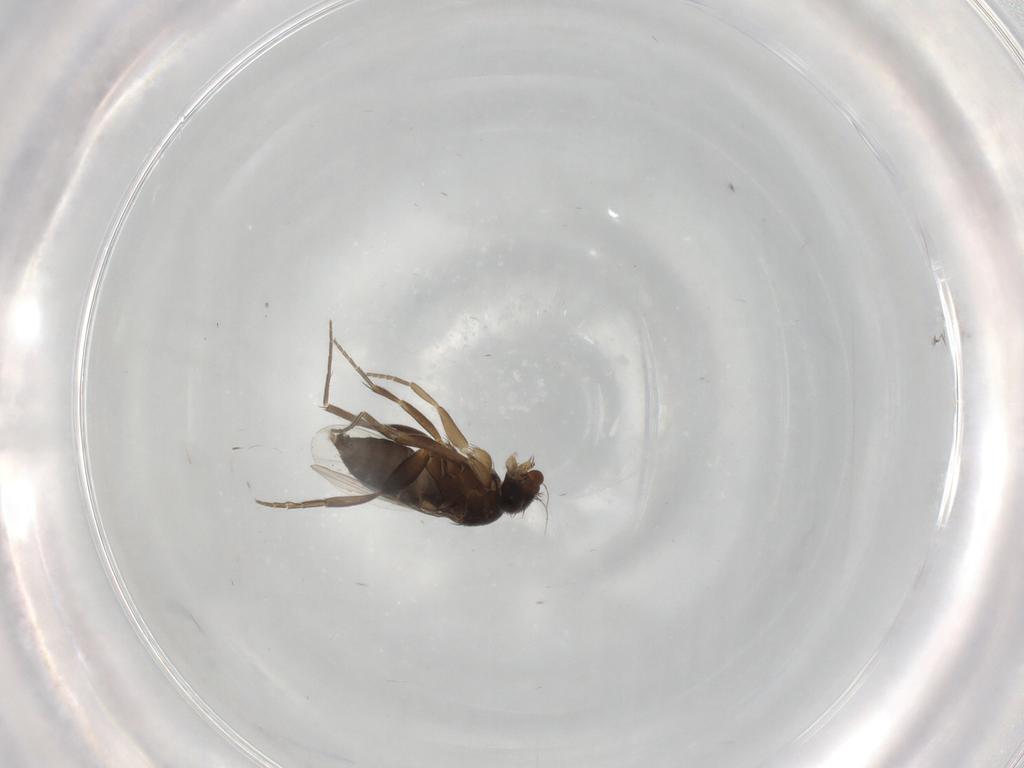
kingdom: Animalia
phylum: Arthropoda
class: Insecta
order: Diptera
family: Phoridae
